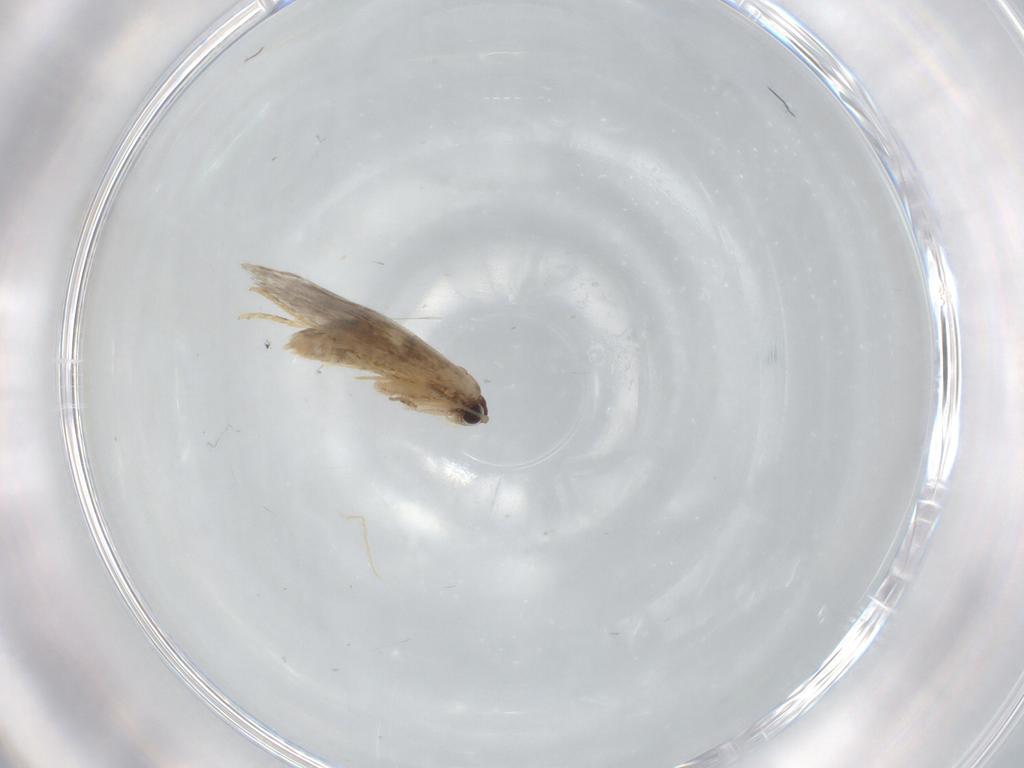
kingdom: Animalia
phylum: Arthropoda
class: Insecta
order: Lepidoptera
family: Tineidae
